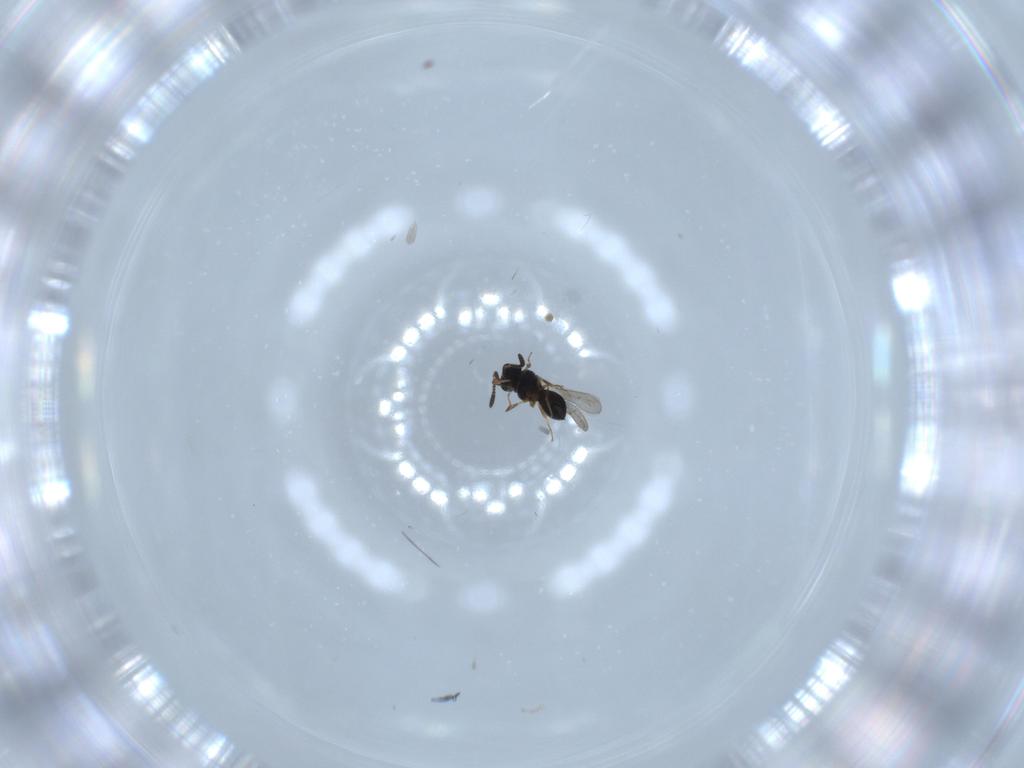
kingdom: Animalia
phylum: Arthropoda
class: Insecta
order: Hymenoptera
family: Scelionidae
